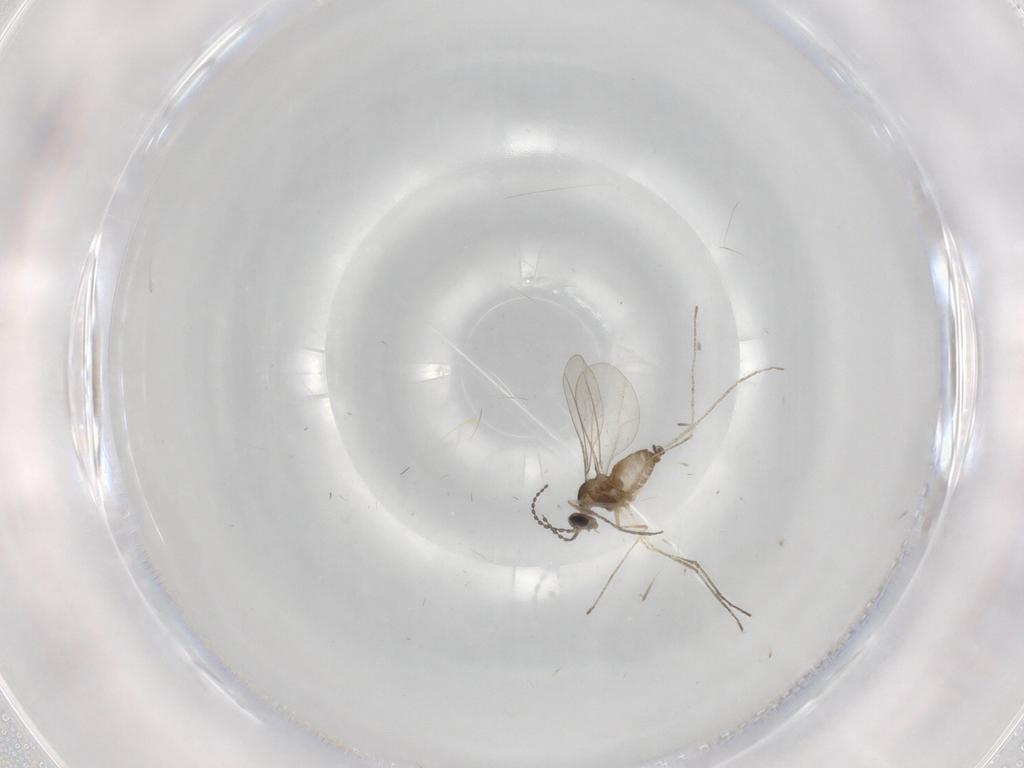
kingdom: Animalia
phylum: Arthropoda
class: Insecta
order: Diptera
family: Cecidomyiidae
